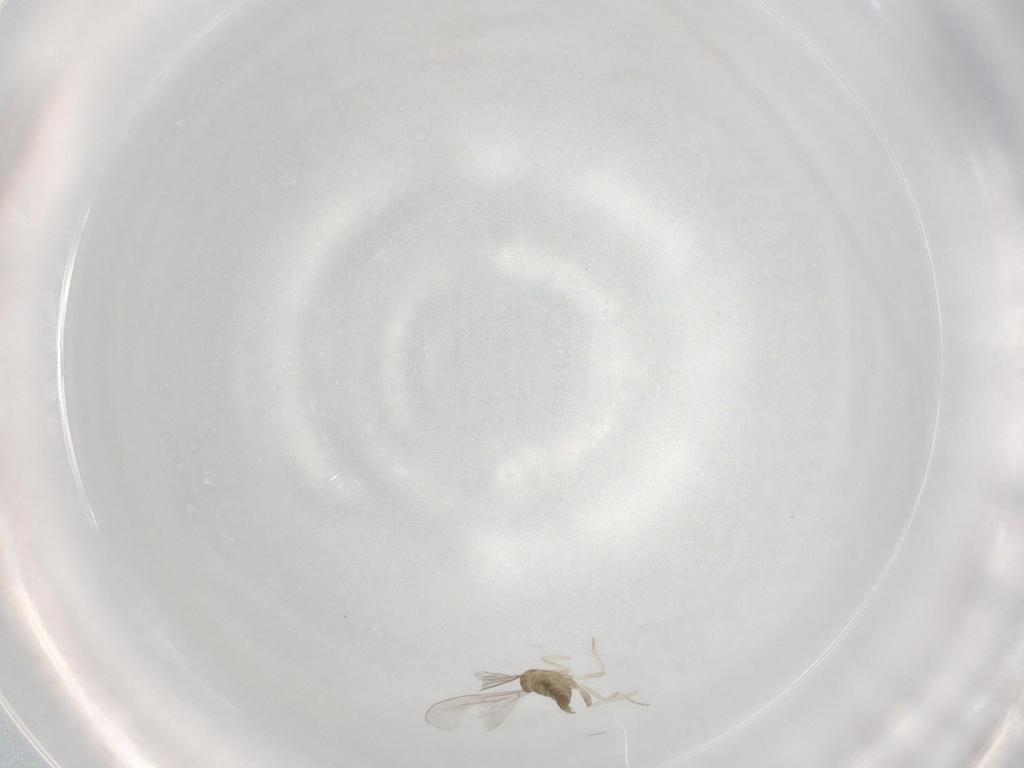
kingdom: Animalia
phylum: Arthropoda
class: Insecta
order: Diptera
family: Cecidomyiidae
